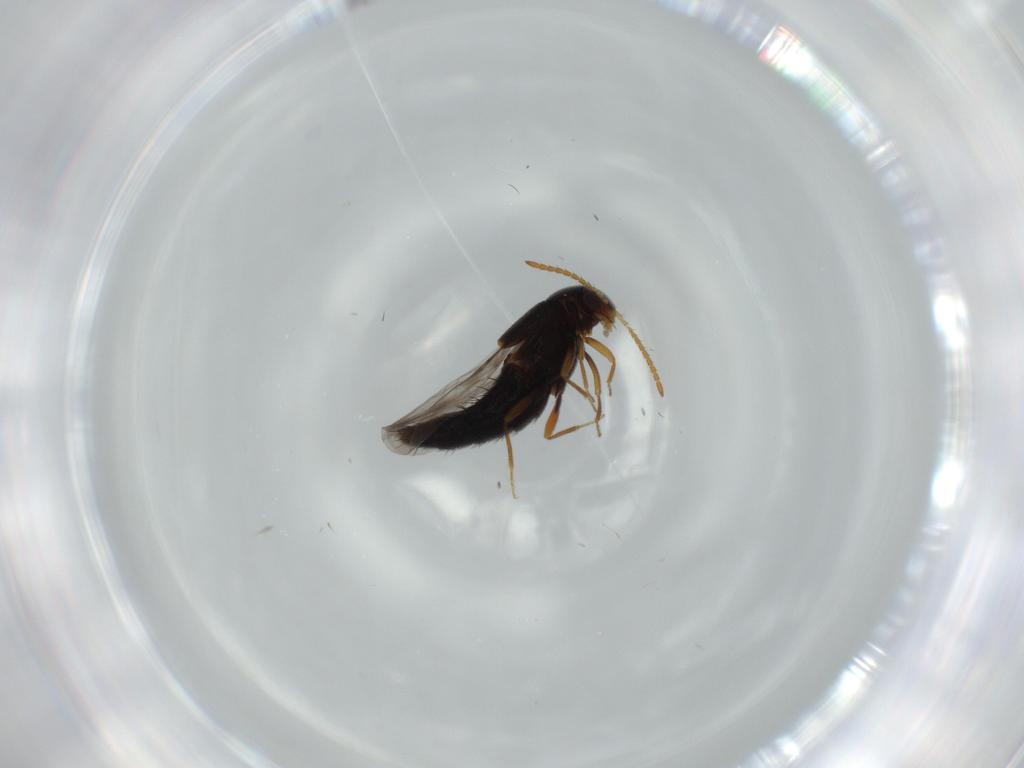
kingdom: Animalia
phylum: Arthropoda
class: Insecta
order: Coleoptera
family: Staphylinidae
